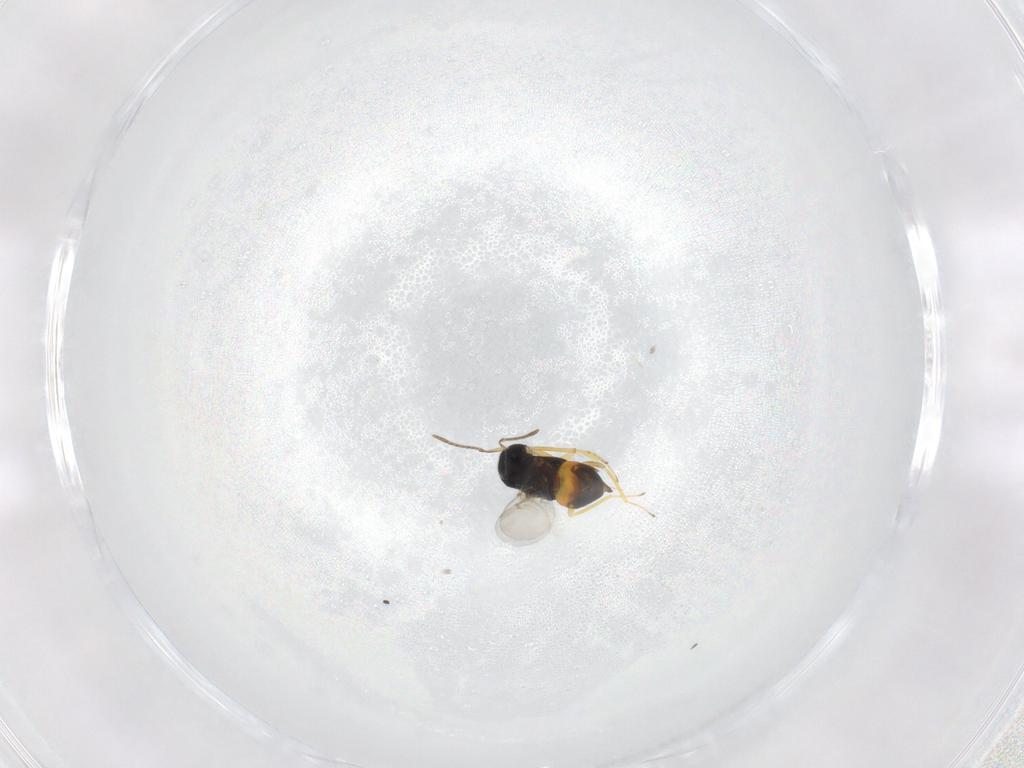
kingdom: Animalia
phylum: Arthropoda
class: Insecta
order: Hymenoptera
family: Encyrtidae
